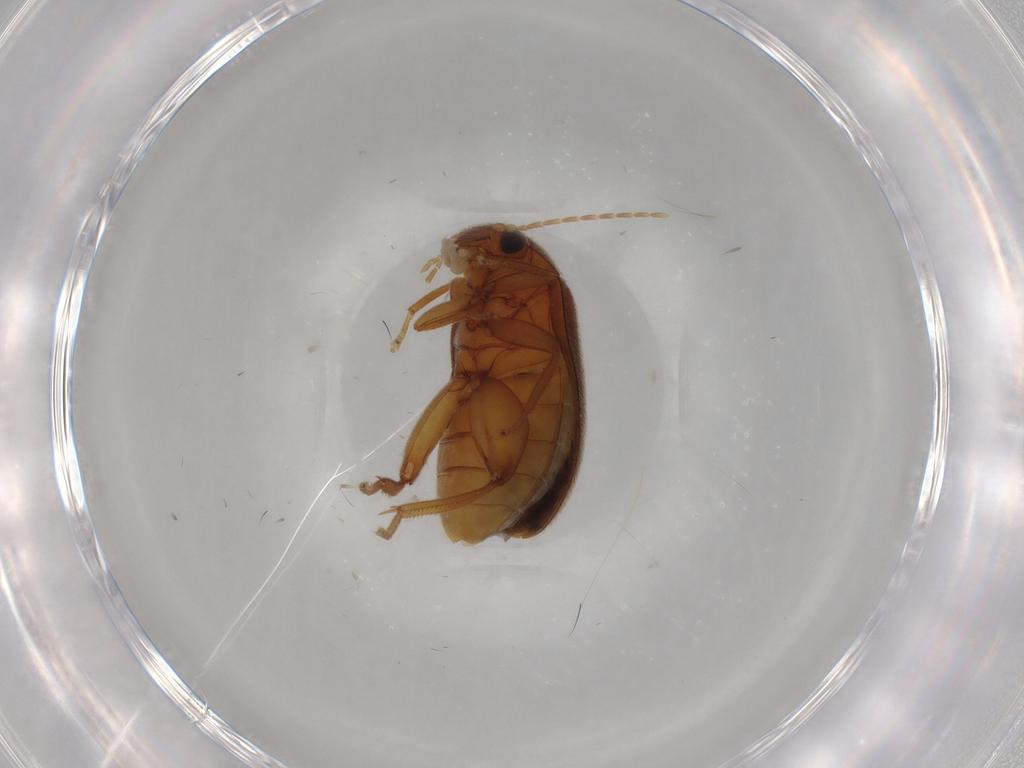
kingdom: Animalia
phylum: Arthropoda
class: Insecta
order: Coleoptera
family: Scirtidae
